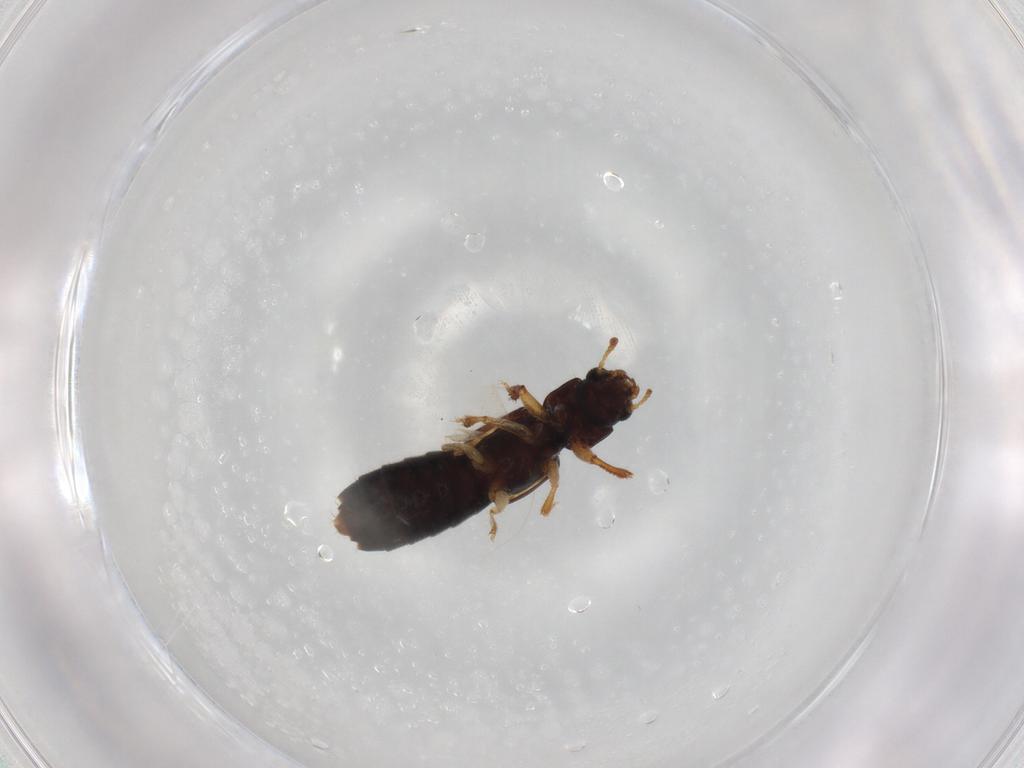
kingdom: Animalia
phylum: Arthropoda
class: Insecta
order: Coleoptera
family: Staphylinidae
